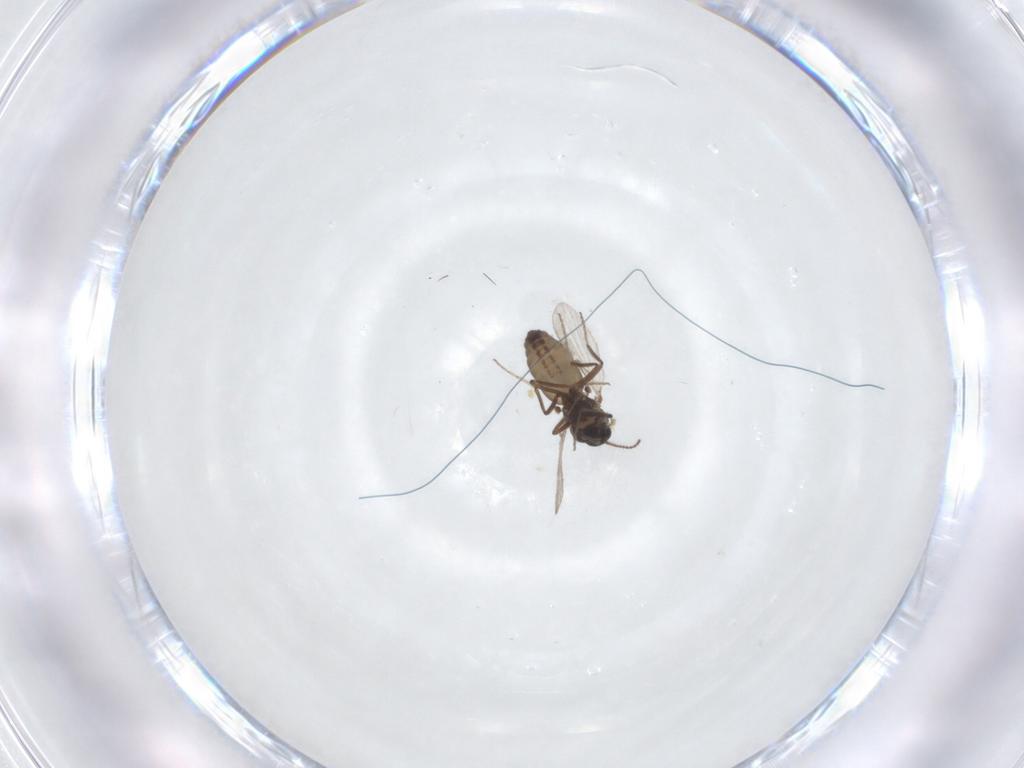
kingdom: Animalia
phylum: Arthropoda
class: Insecta
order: Diptera
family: Ceratopogonidae
